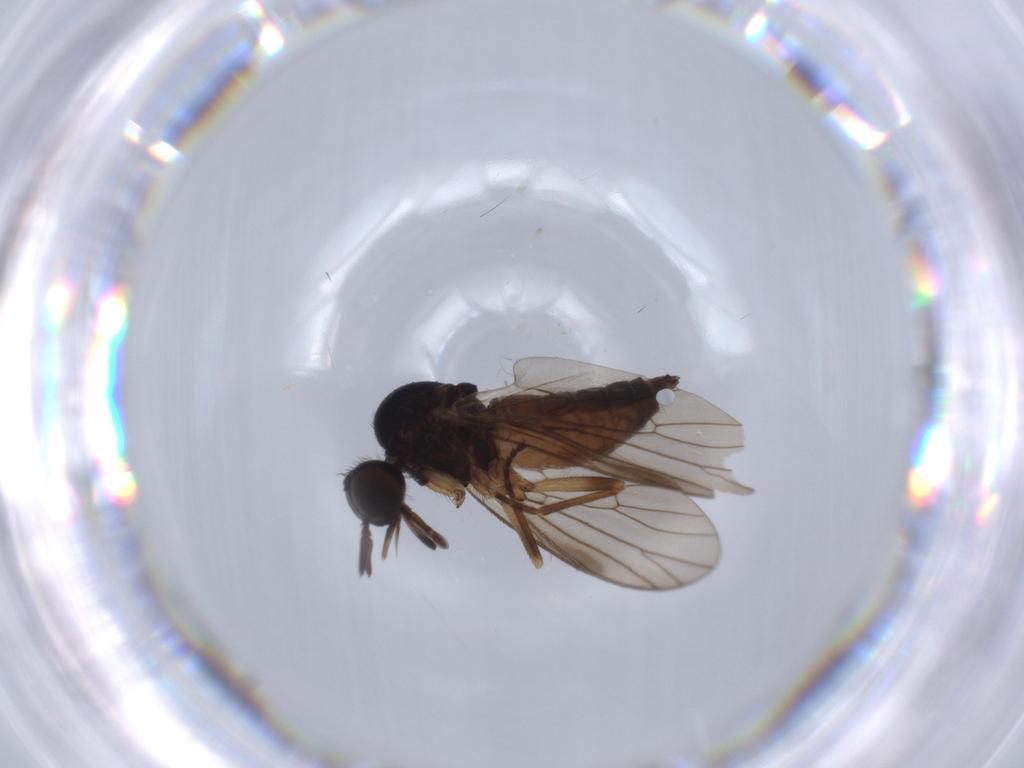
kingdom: Animalia
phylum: Arthropoda
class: Insecta
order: Diptera
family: Iteaphilidae
